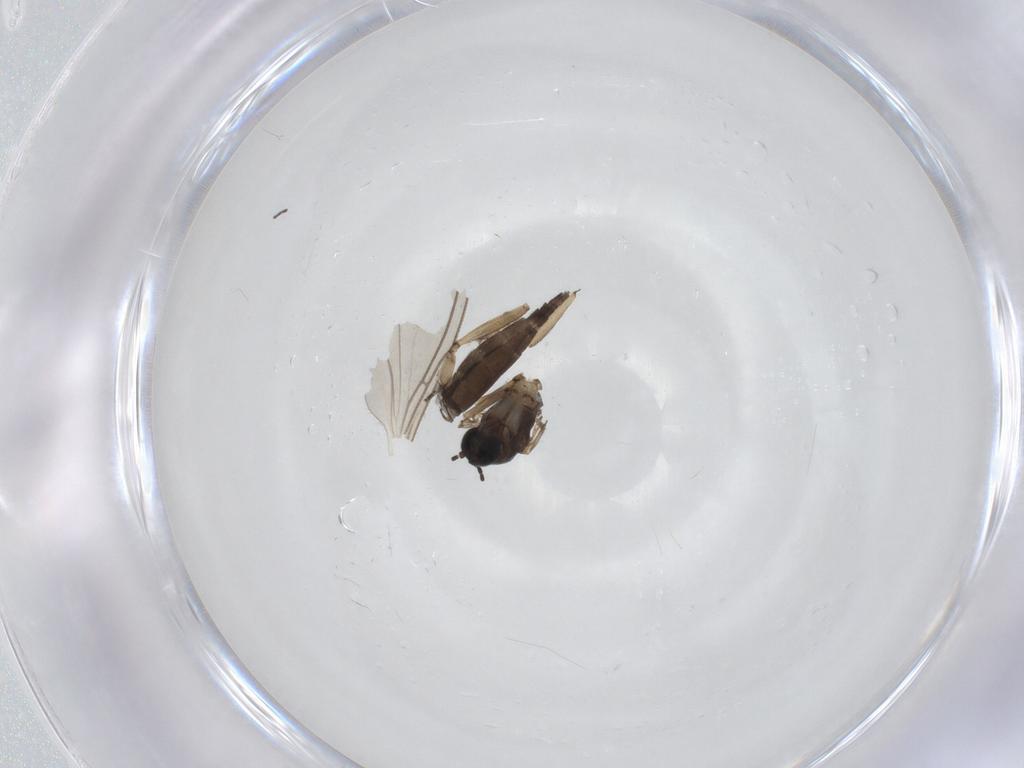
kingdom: Animalia
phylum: Arthropoda
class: Insecta
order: Diptera
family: Sciaridae
